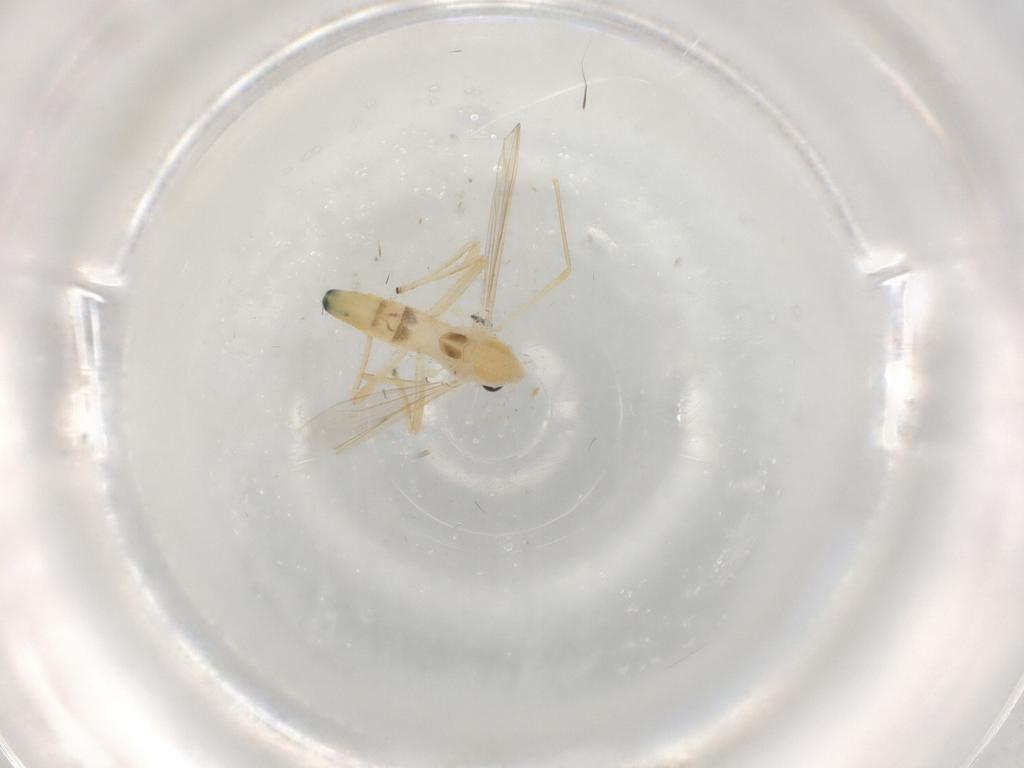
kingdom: Animalia
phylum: Arthropoda
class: Insecta
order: Diptera
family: Chironomidae
